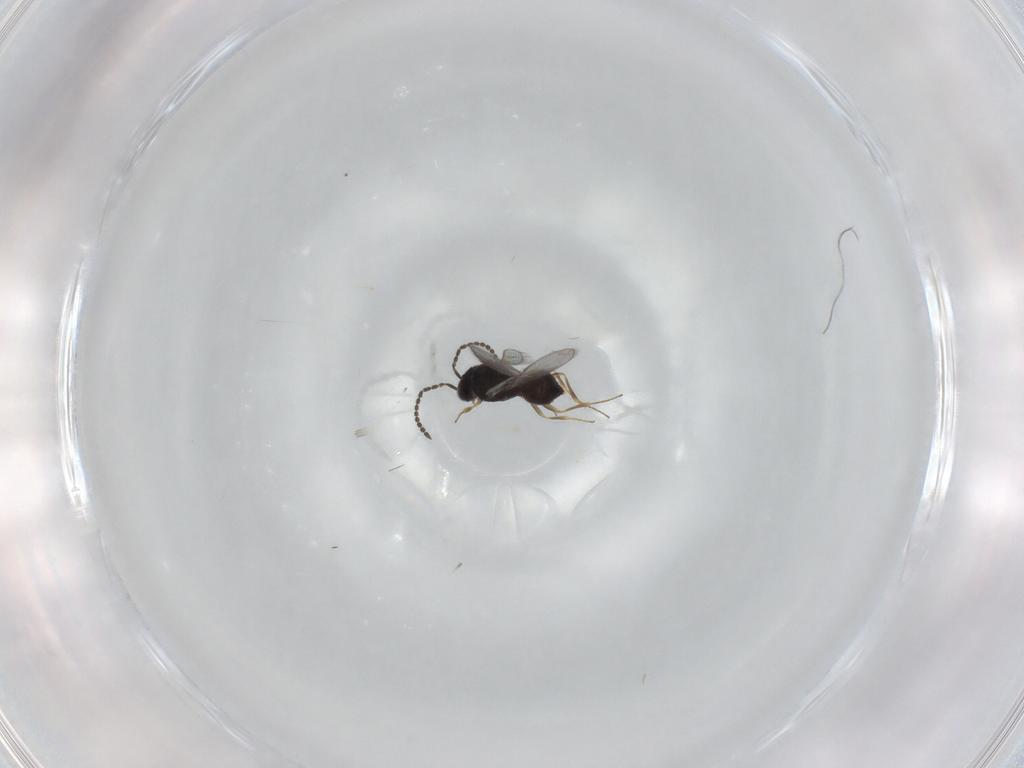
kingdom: Animalia
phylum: Arthropoda
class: Insecta
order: Hymenoptera
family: Scelionidae
